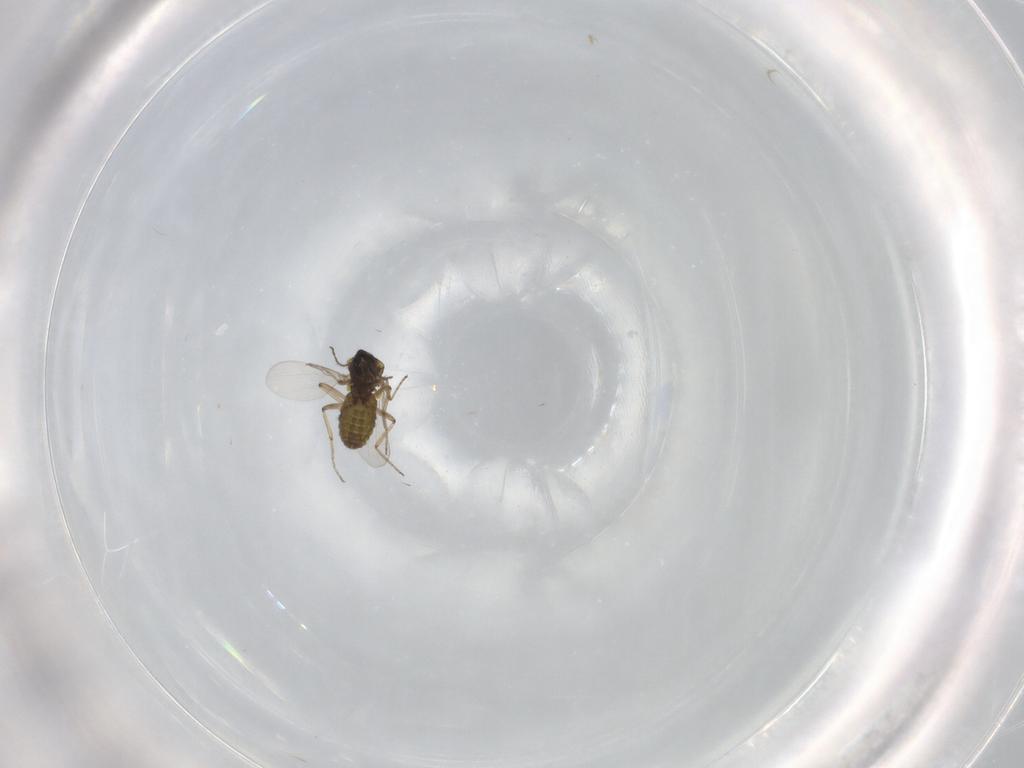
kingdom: Animalia
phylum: Arthropoda
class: Insecta
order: Diptera
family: Ceratopogonidae
